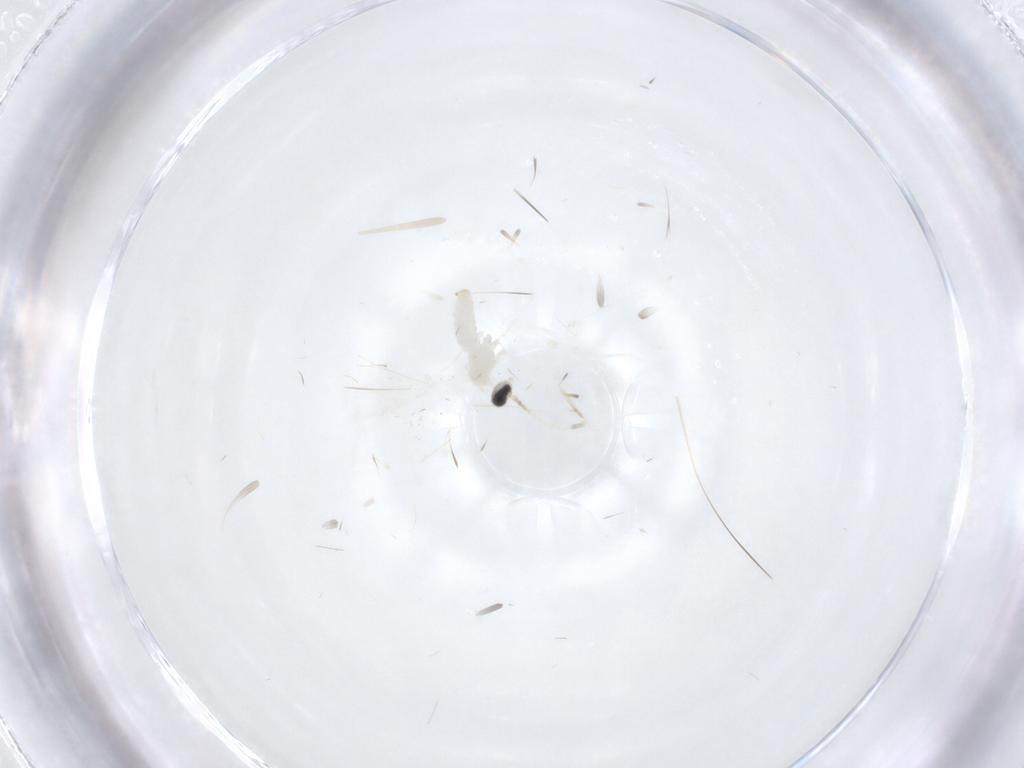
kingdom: Animalia
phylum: Arthropoda
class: Insecta
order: Diptera
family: Cecidomyiidae
